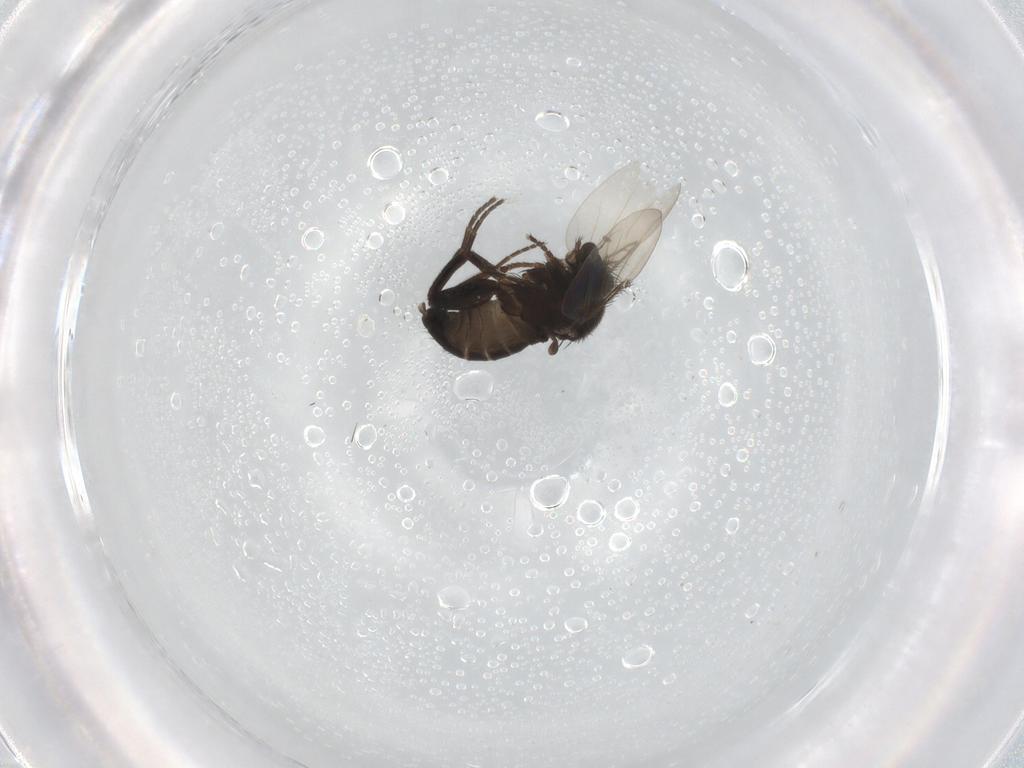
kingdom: Animalia
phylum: Arthropoda
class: Insecta
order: Diptera
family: Phoridae
